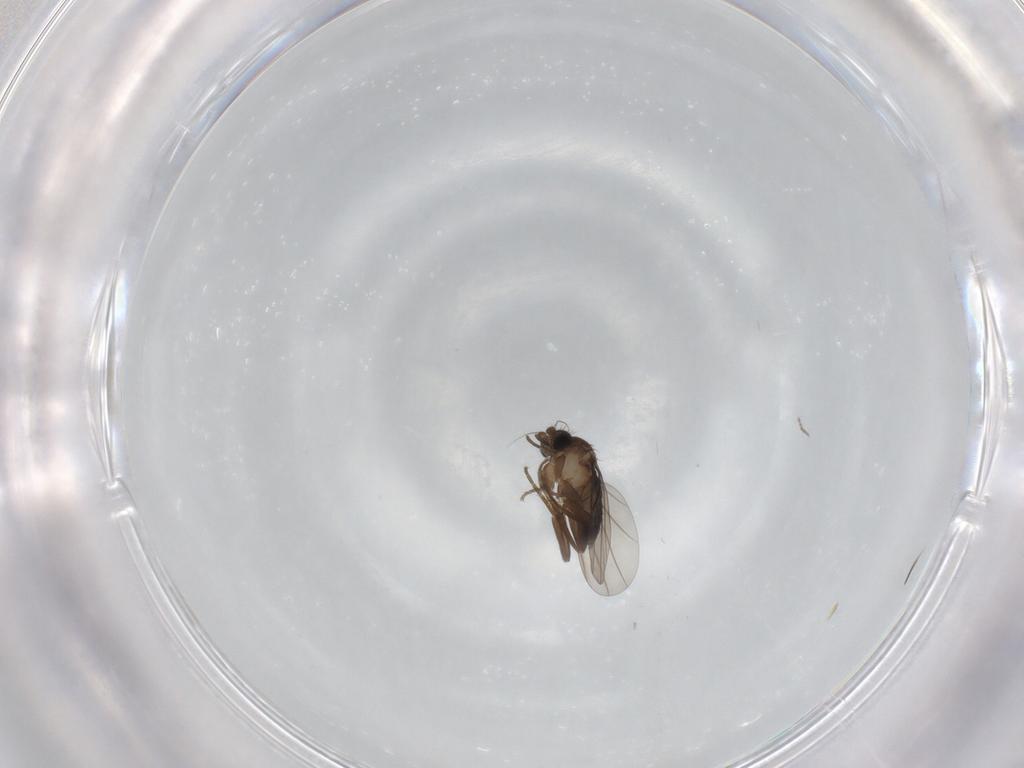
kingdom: Animalia
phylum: Arthropoda
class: Insecta
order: Diptera
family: Cecidomyiidae
